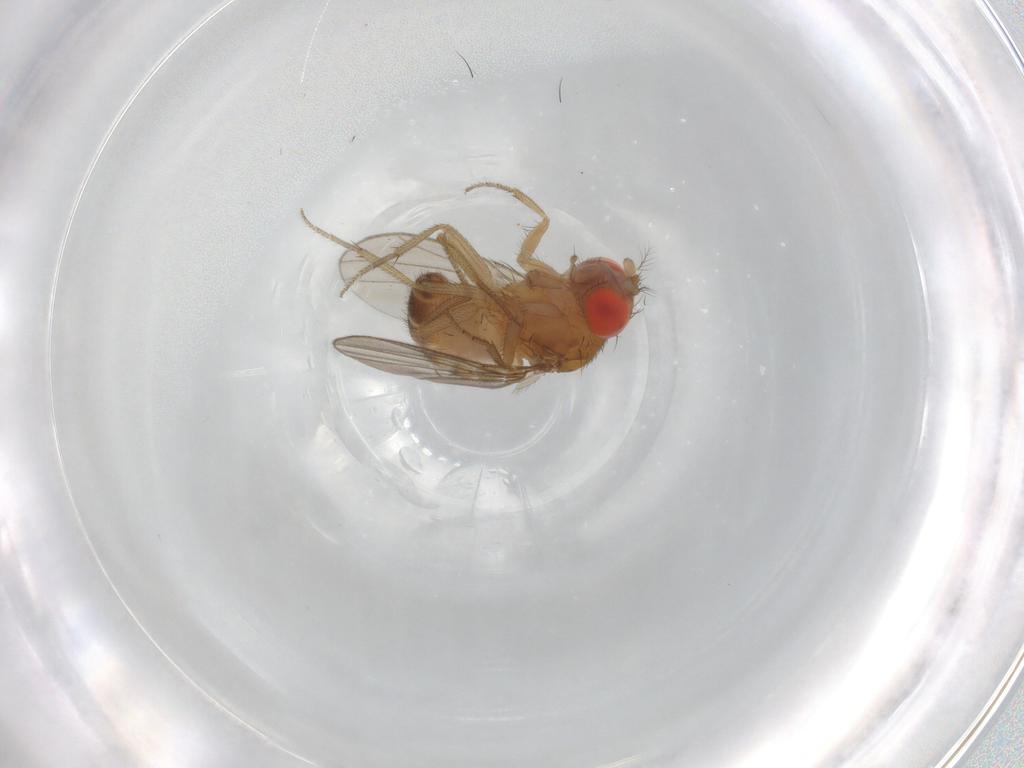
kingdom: Animalia
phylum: Arthropoda
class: Insecta
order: Diptera
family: Drosophilidae
